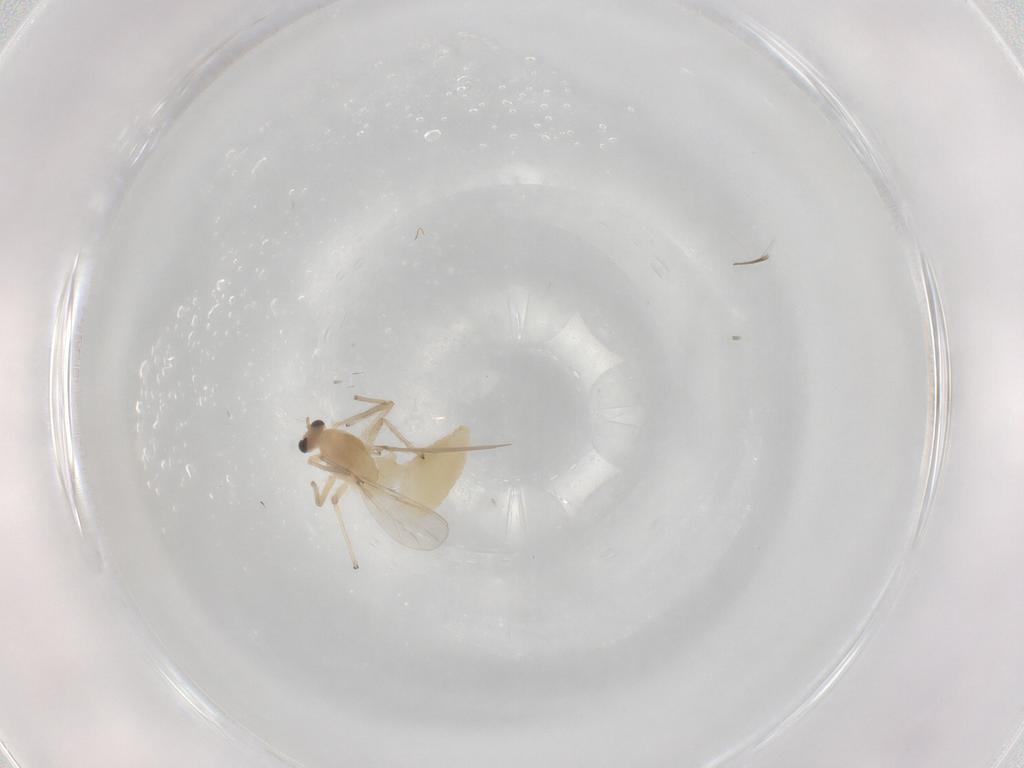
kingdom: Animalia
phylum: Arthropoda
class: Insecta
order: Diptera
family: Chironomidae
